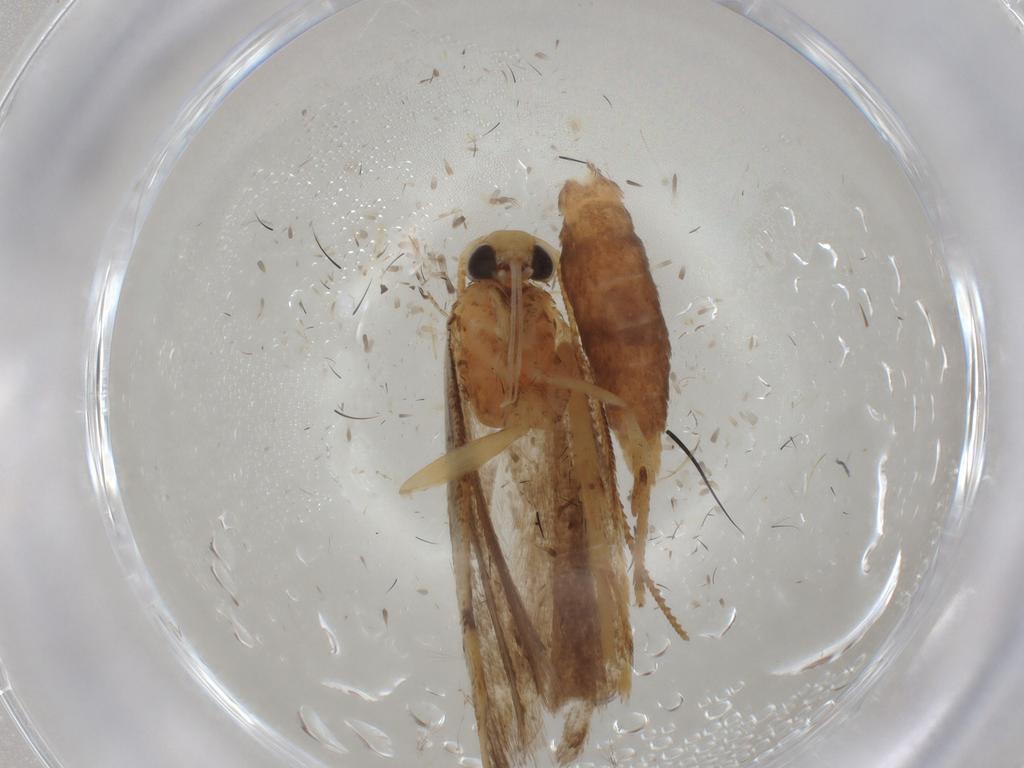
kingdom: Animalia
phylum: Arthropoda
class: Insecta
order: Lepidoptera
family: Gelechiidae
